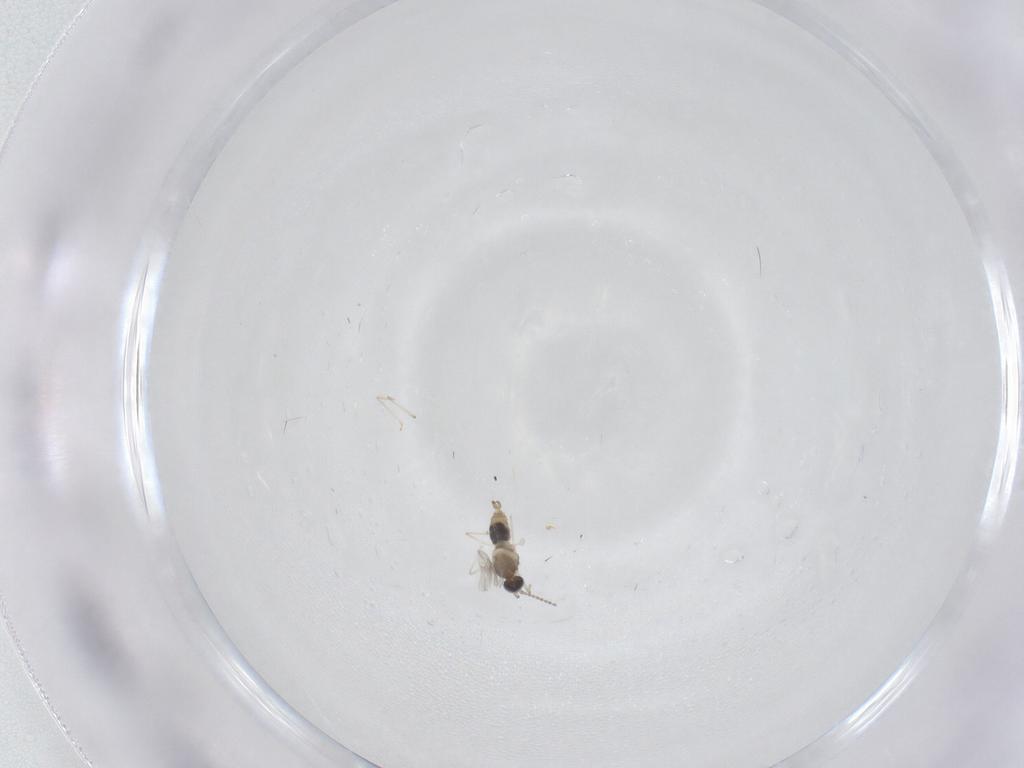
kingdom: Animalia
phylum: Arthropoda
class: Insecta
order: Diptera
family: Cecidomyiidae
